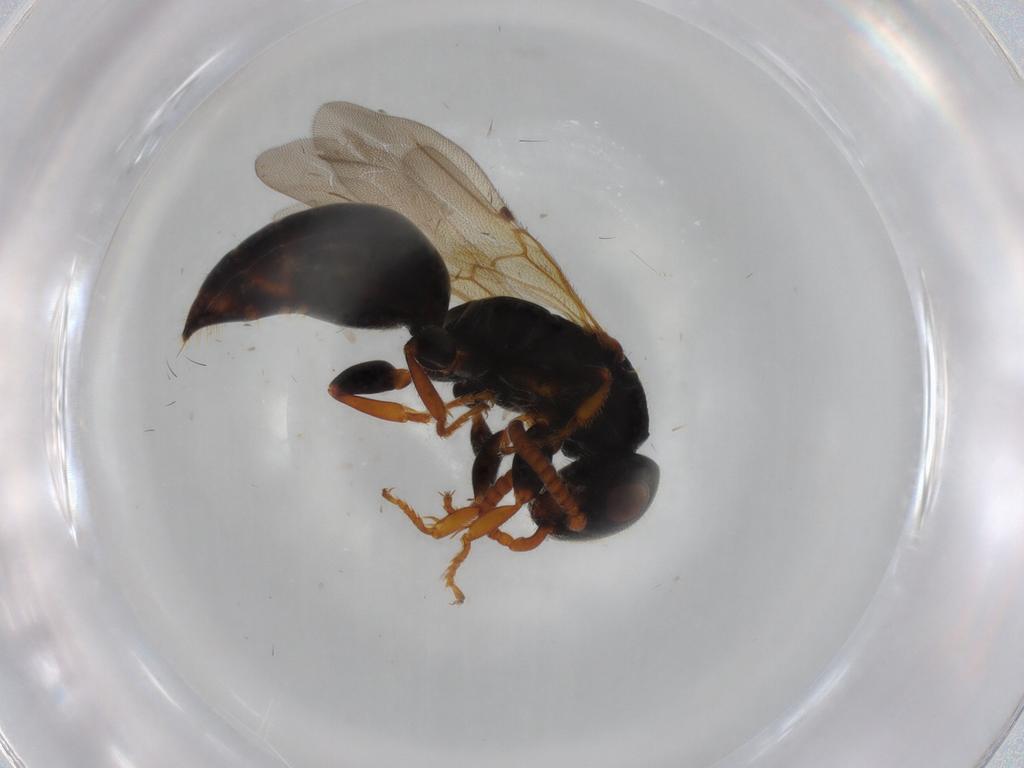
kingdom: Animalia
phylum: Arthropoda
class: Insecta
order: Hymenoptera
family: Bethylidae
